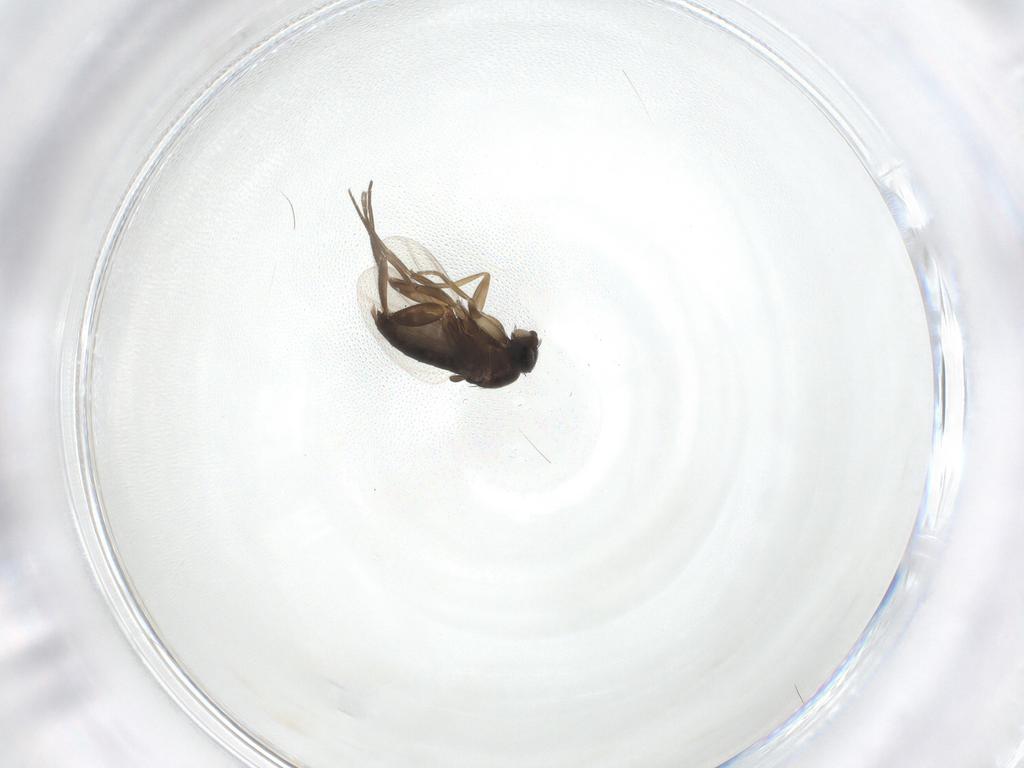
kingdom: Animalia
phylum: Arthropoda
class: Insecta
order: Diptera
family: Phoridae
